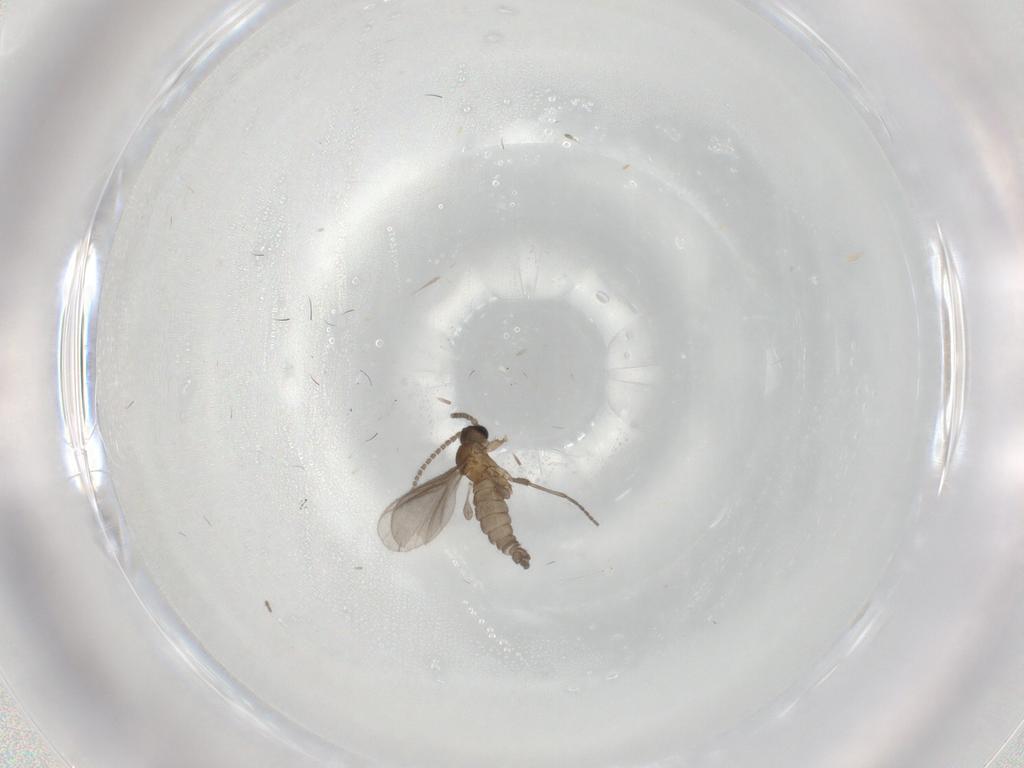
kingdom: Animalia
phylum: Arthropoda
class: Insecta
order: Diptera
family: Sciaridae
